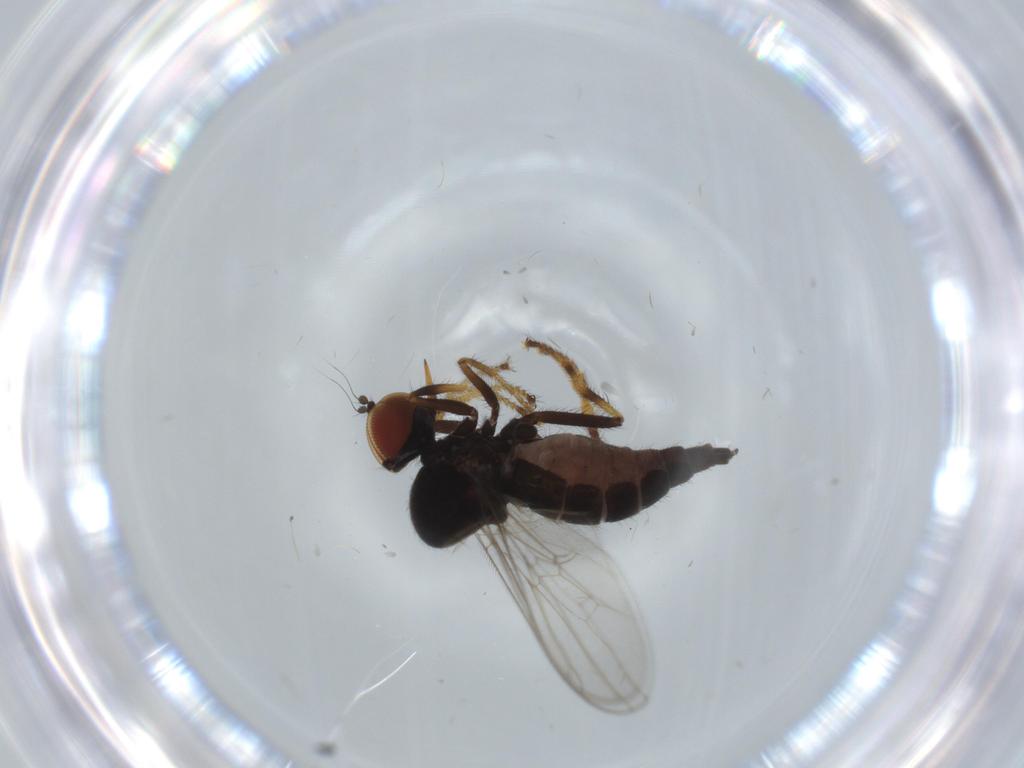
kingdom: Animalia
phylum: Arthropoda
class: Insecta
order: Diptera
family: Hybotidae
